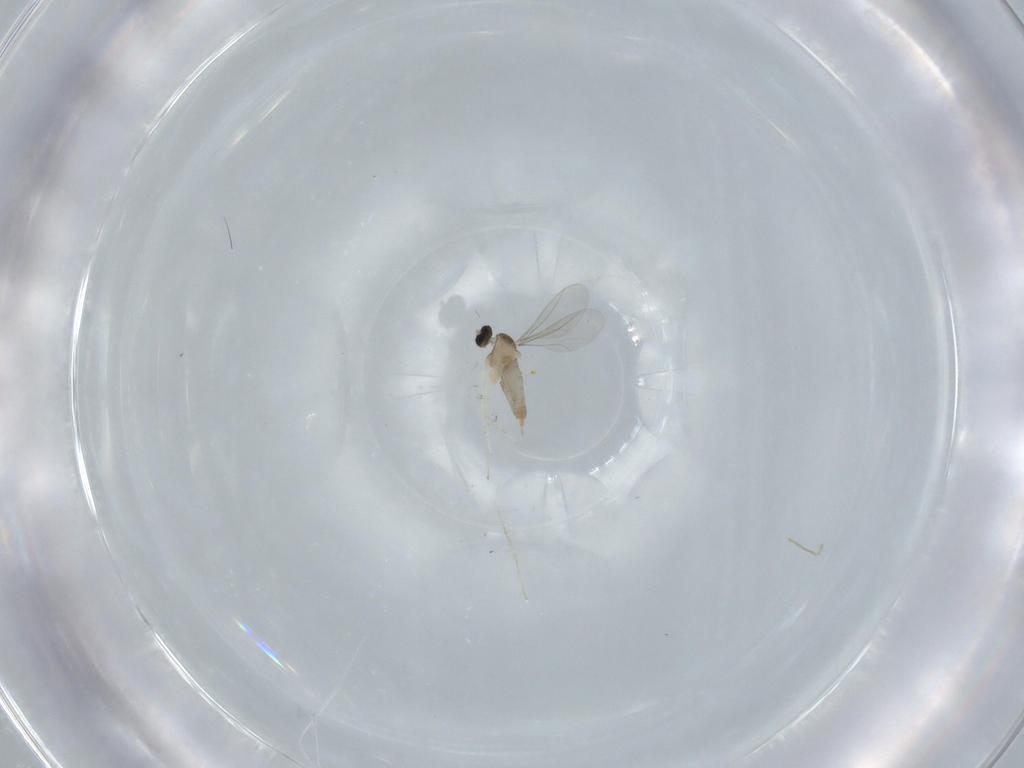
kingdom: Animalia
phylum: Arthropoda
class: Insecta
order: Diptera
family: Cecidomyiidae
